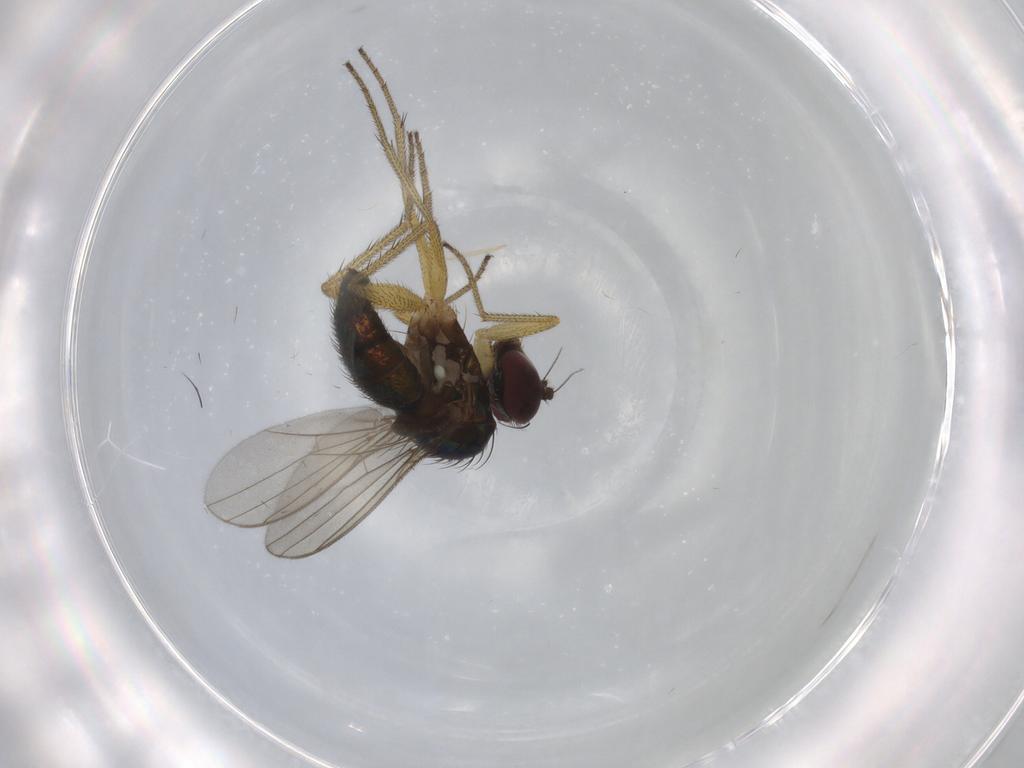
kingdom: Animalia
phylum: Arthropoda
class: Insecta
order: Diptera
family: Dolichopodidae
